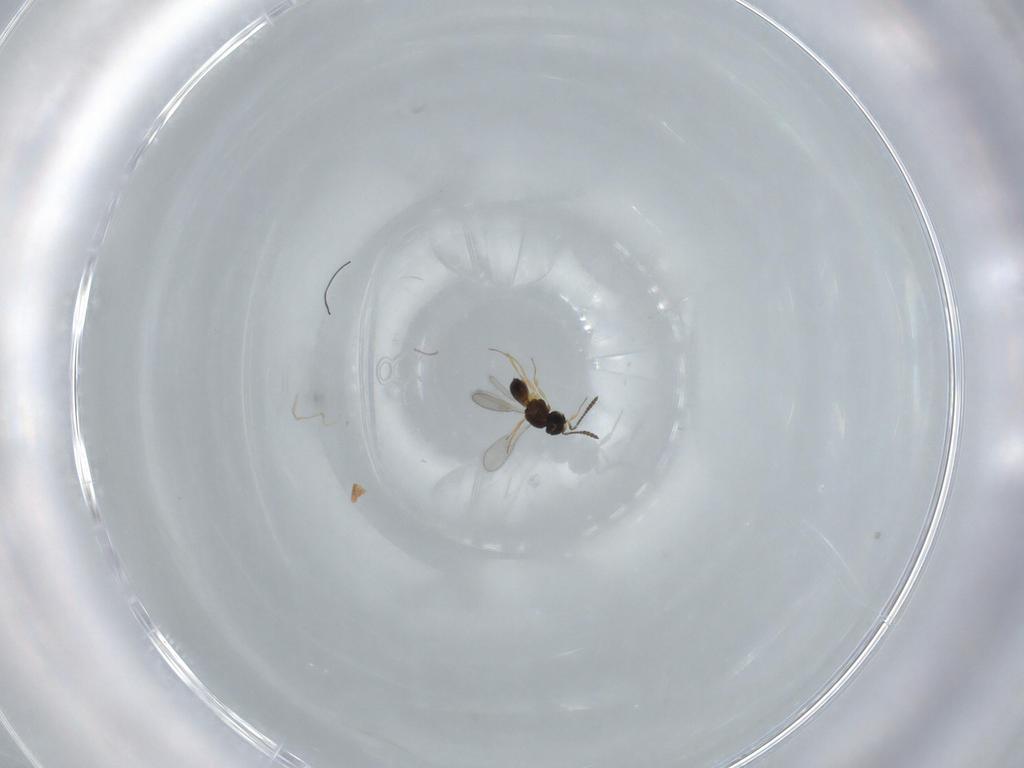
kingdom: Animalia
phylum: Arthropoda
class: Insecta
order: Hymenoptera
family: Scelionidae
